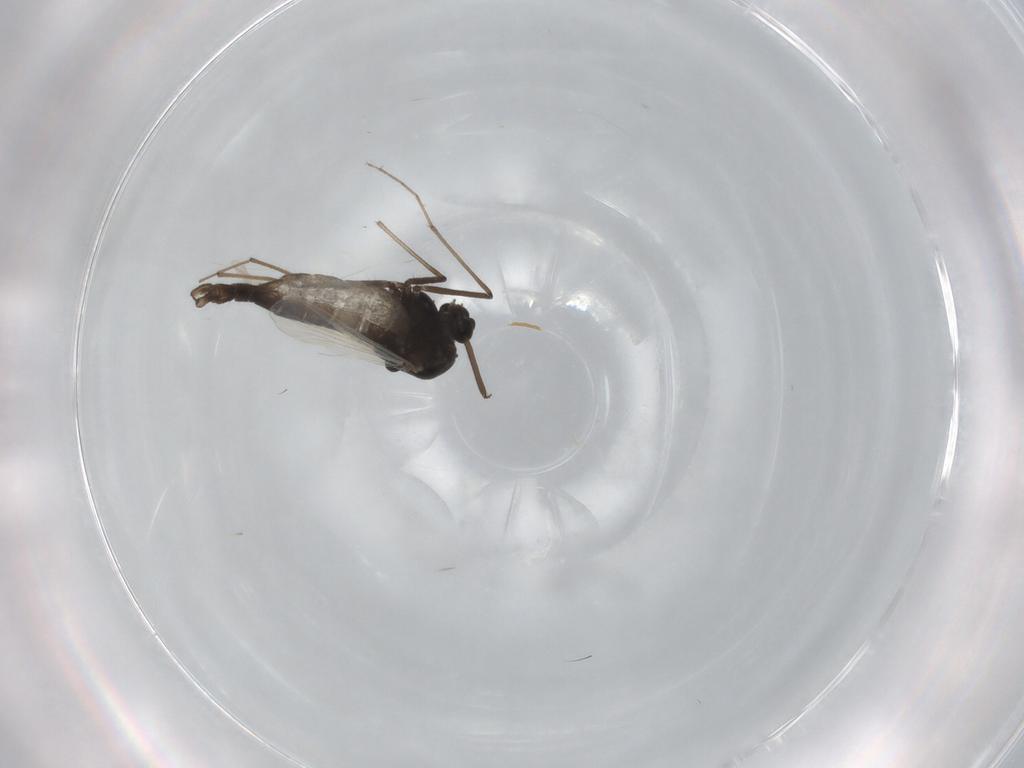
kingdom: Animalia
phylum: Arthropoda
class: Insecta
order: Diptera
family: Chironomidae
